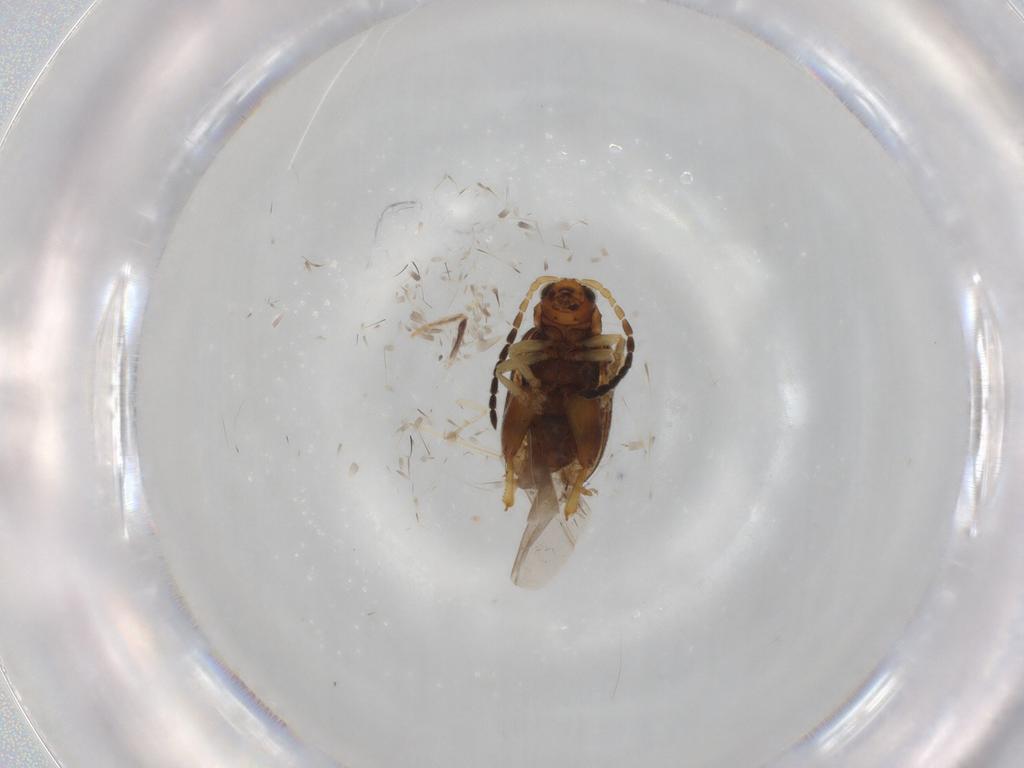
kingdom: Animalia
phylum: Arthropoda
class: Insecta
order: Coleoptera
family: Chrysomelidae
